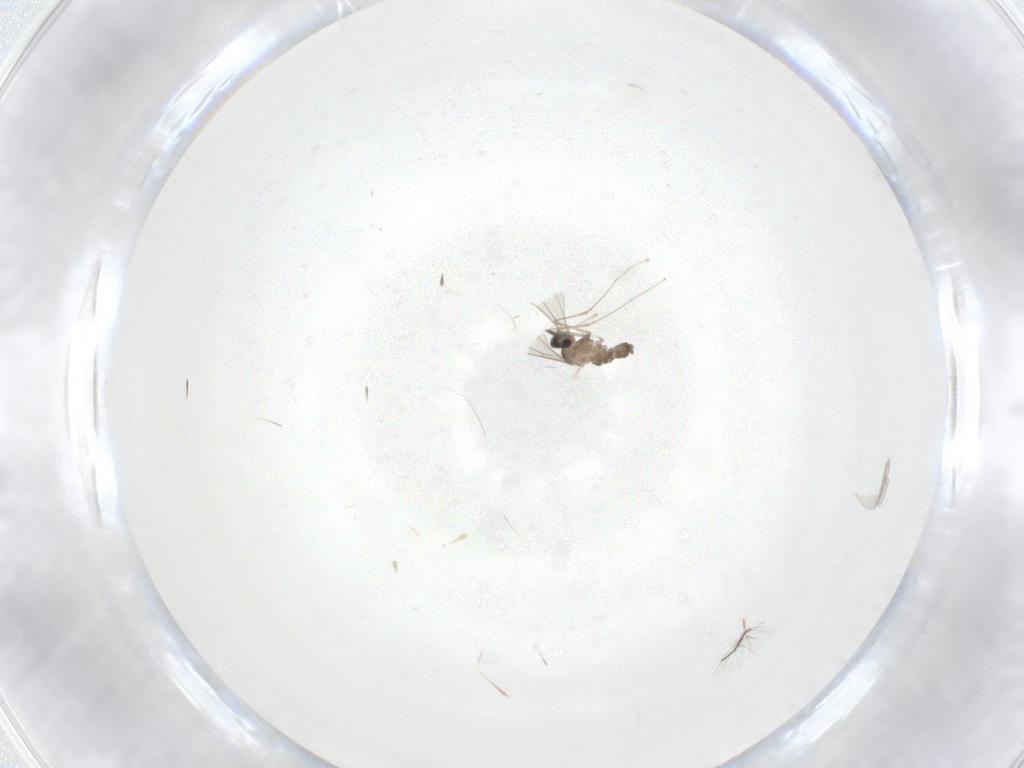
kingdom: Animalia
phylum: Arthropoda
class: Insecta
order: Diptera
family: Cecidomyiidae
